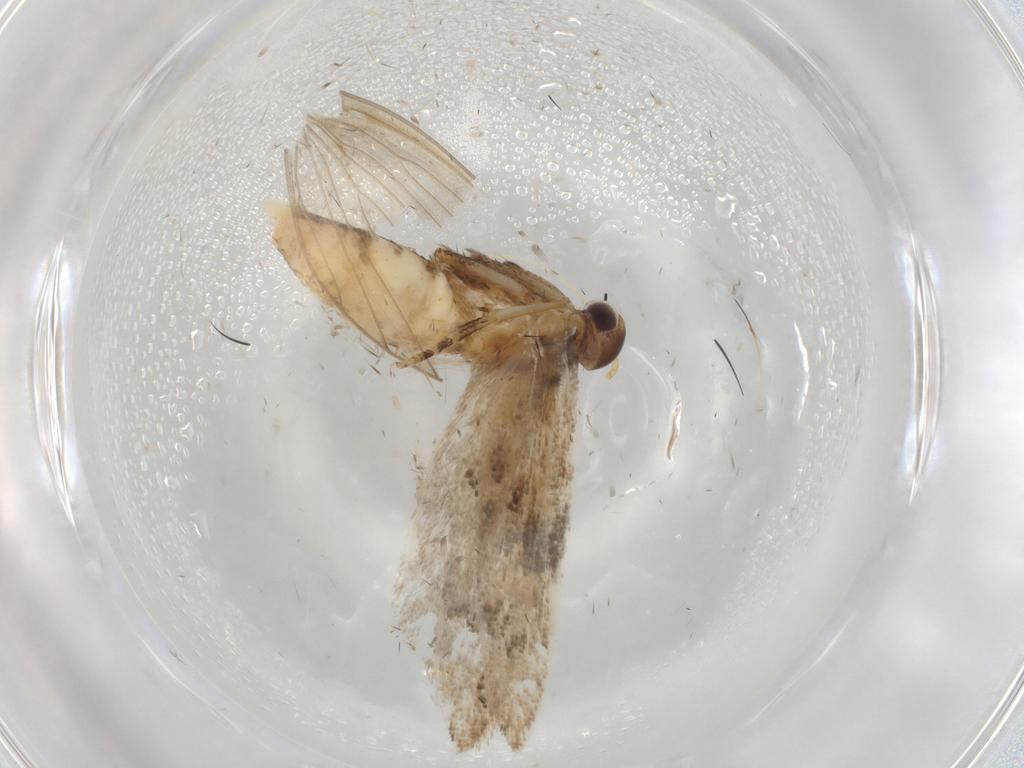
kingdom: Animalia
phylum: Arthropoda
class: Insecta
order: Lepidoptera
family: Gelechiidae
